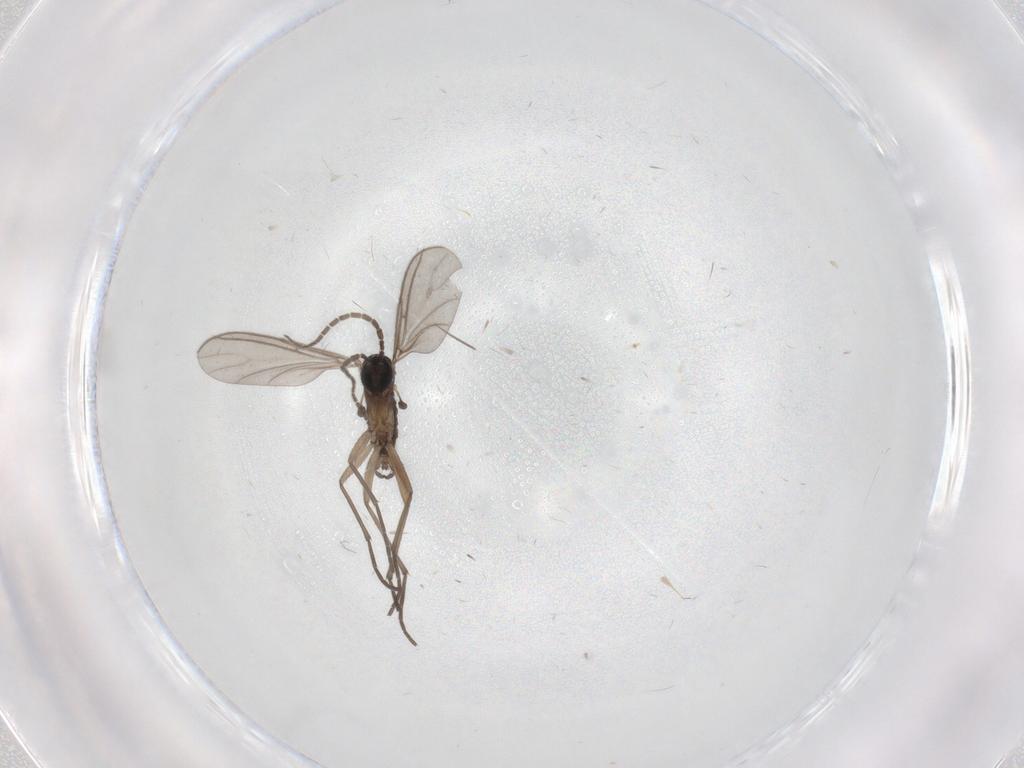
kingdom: Animalia
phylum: Arthropoda
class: Insecta
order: Diptera
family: Sciaridae
